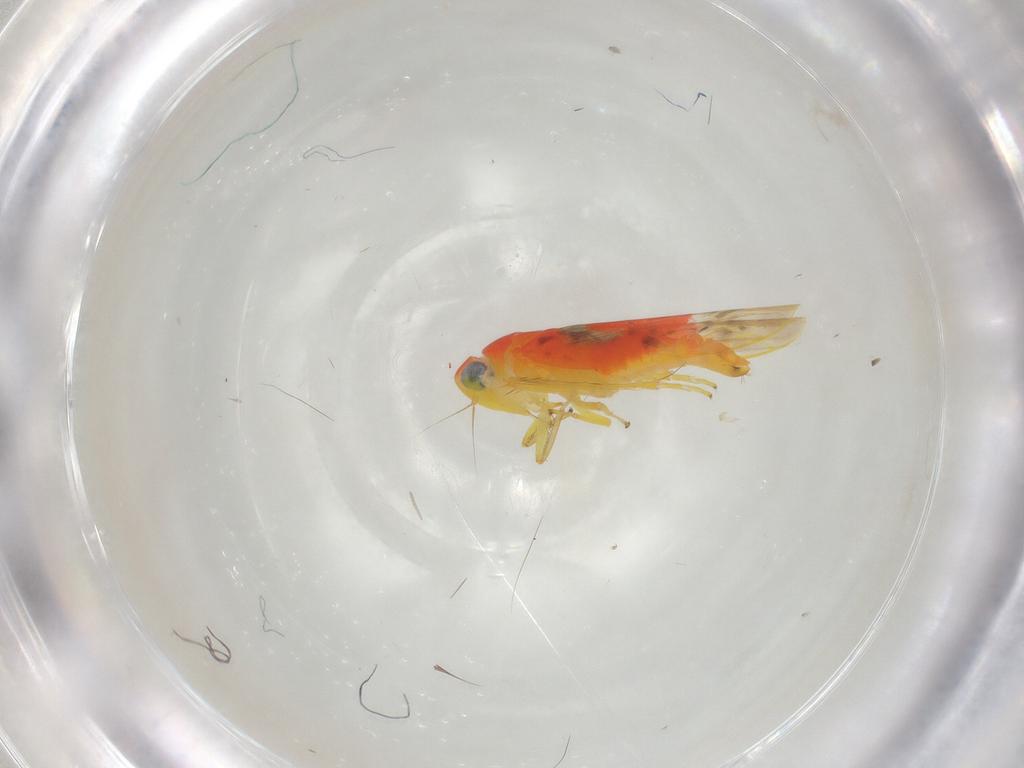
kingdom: Animalia
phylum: Arthropoda
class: Insecta
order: Hemiptera
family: Cicadellidae
